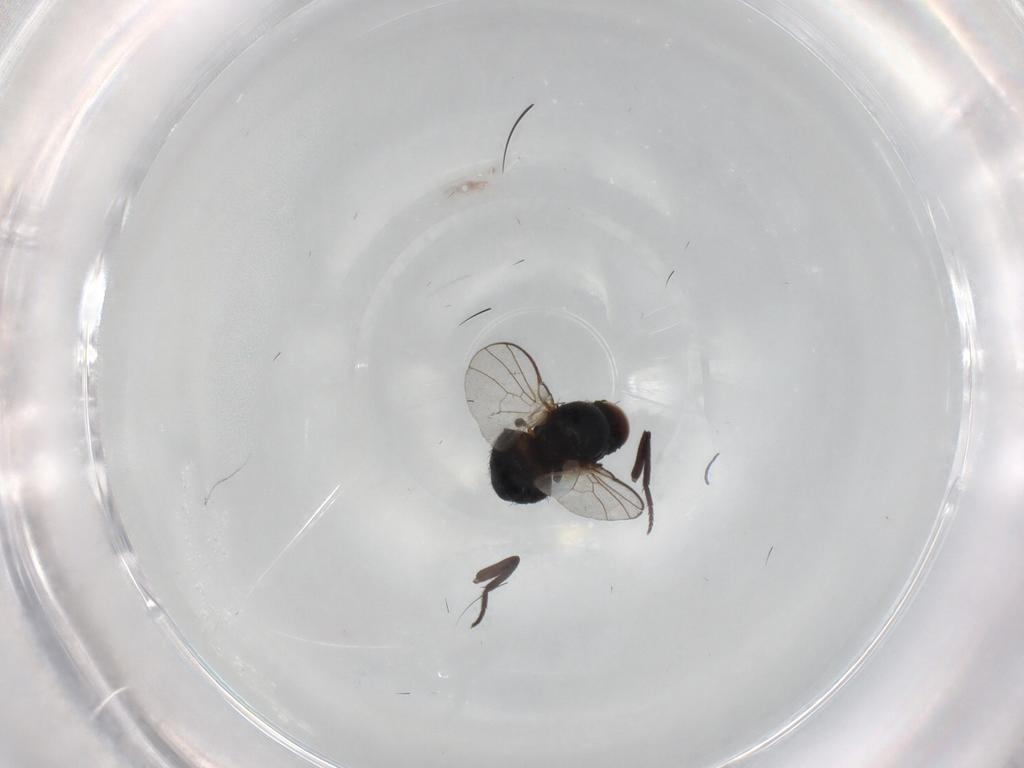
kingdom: Animalia
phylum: Arthropoda
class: Insecta
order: Diptera
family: Agromyzidae
